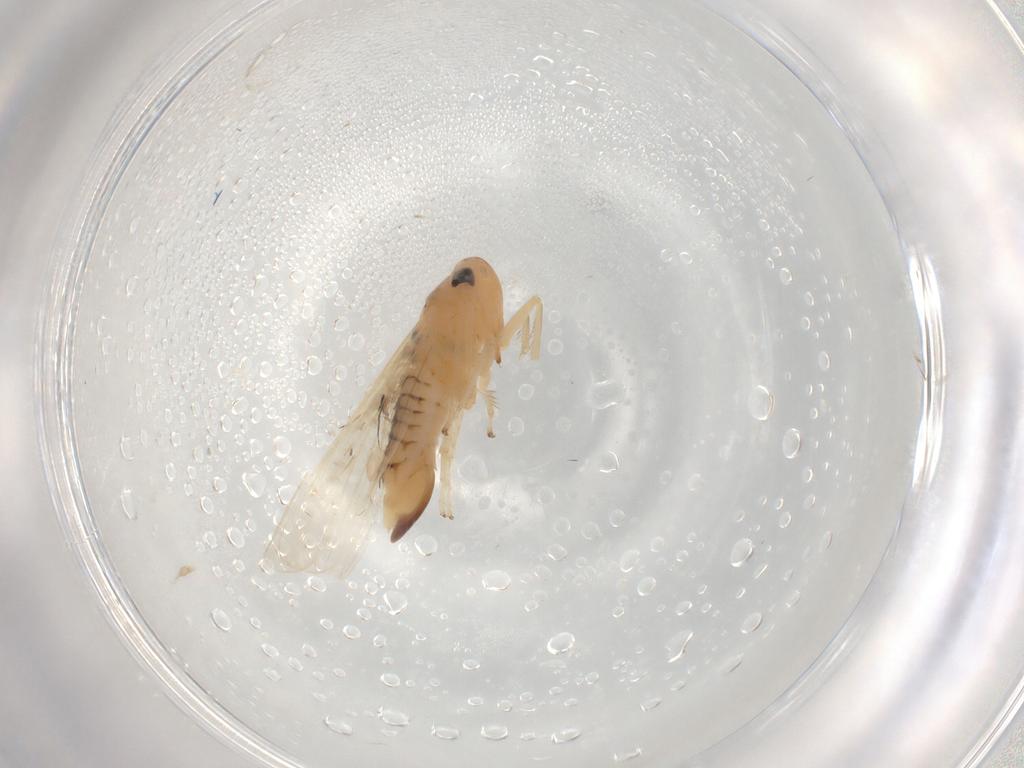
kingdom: Animalia
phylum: Arthropoda
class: Insecta
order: Hemiptera
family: Cicadellidae
